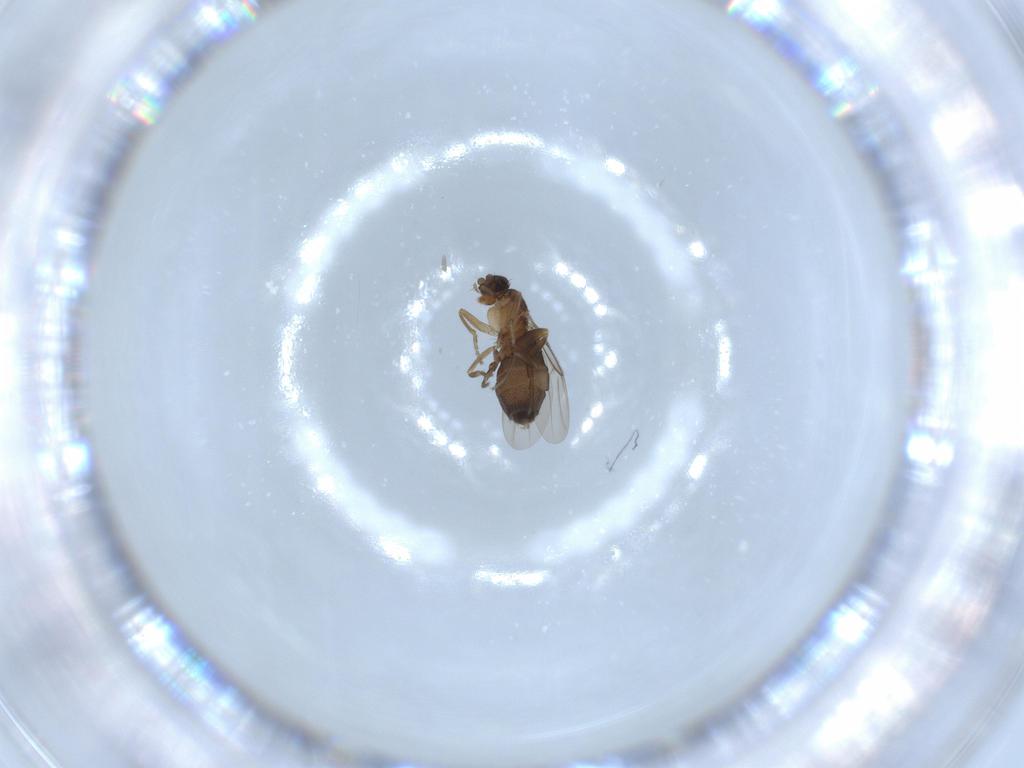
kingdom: Animalia
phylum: Arthropoda
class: Insecta
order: Diptera
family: Phoridae
